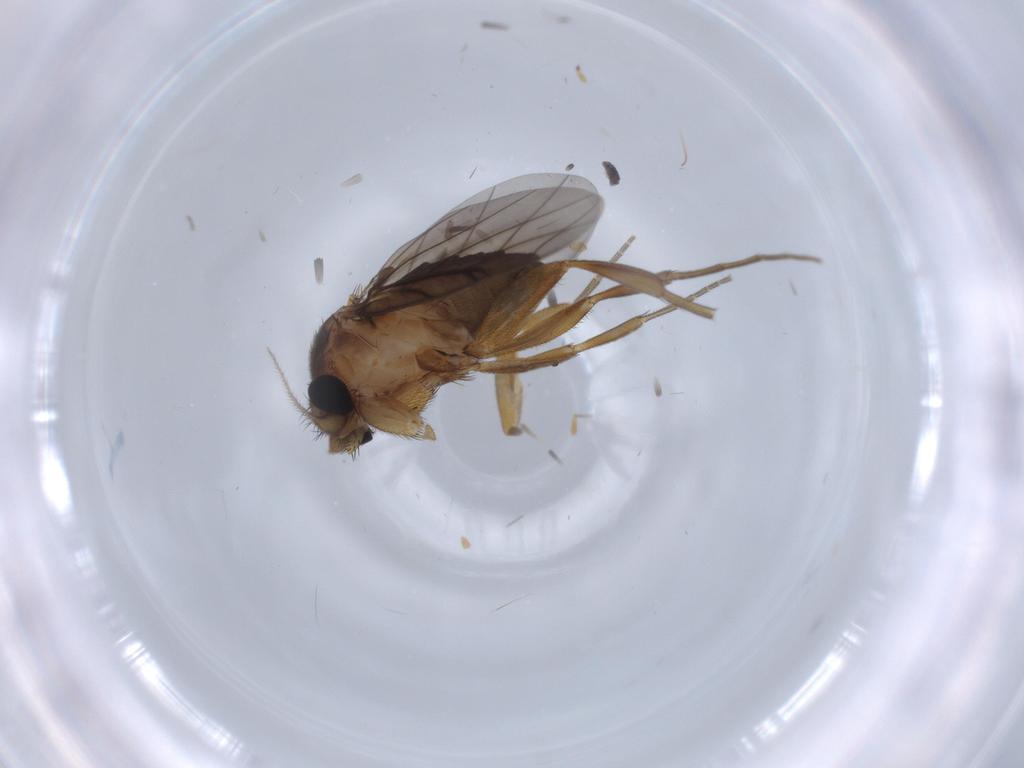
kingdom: Animalia
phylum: Arthropoda
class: Insecta
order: Diptera
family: Phoridae
